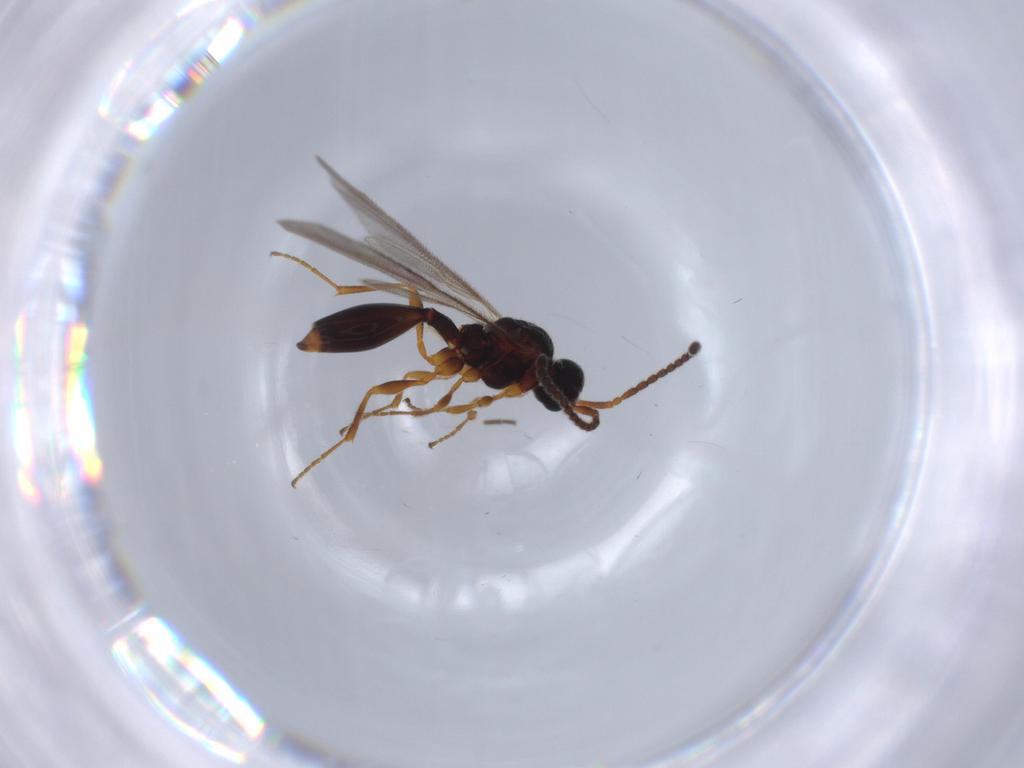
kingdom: Animalia
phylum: Arthropoda
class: Insecta
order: Hymenoptera
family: Diapriidae
